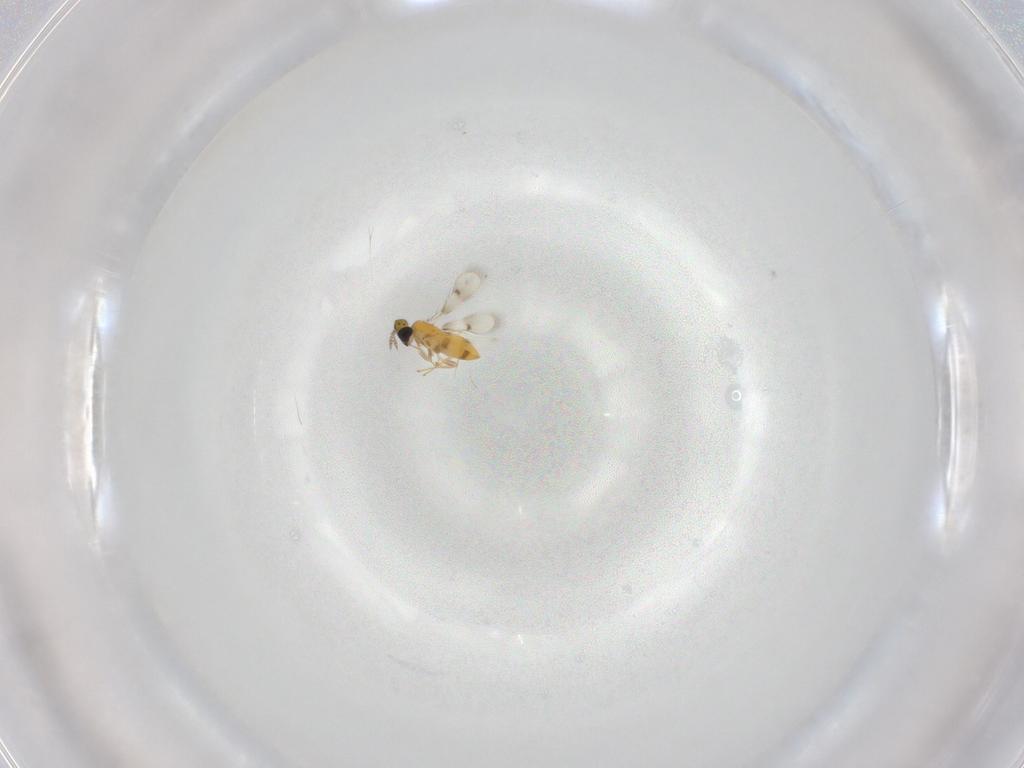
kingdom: Animalia
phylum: Arthropoda
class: Insecta
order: Hymenoptera
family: Trichogrammatidae
